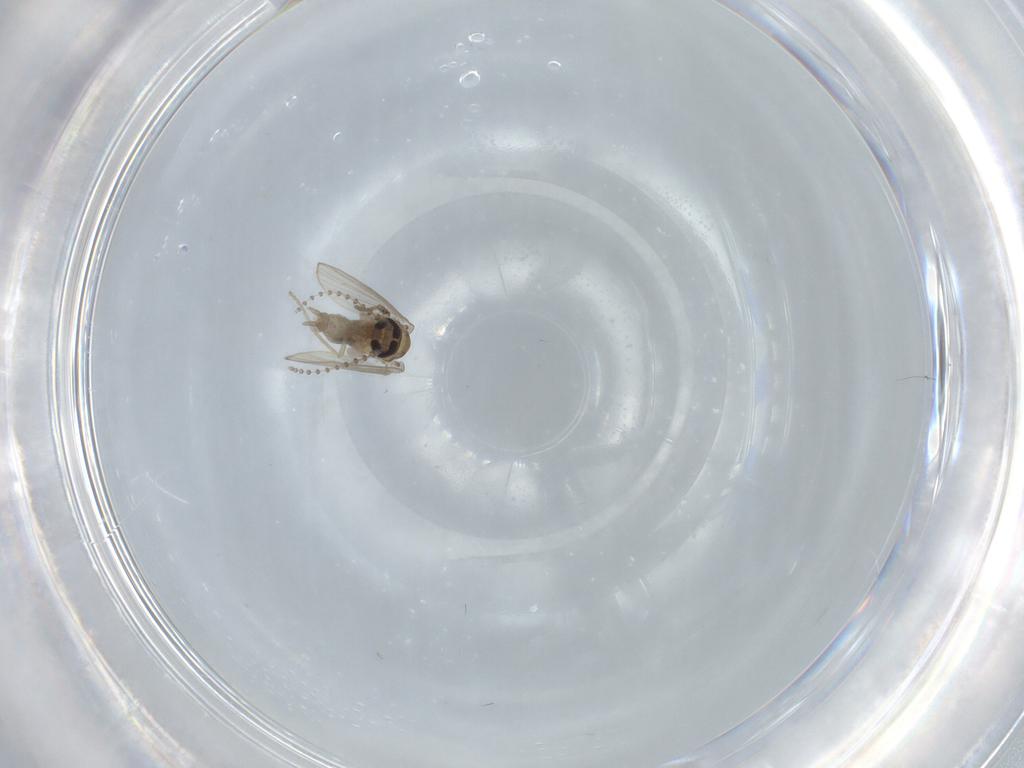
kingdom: Animalia
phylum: Arthropoda
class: Insecta
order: Diptera
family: Psychodidae
